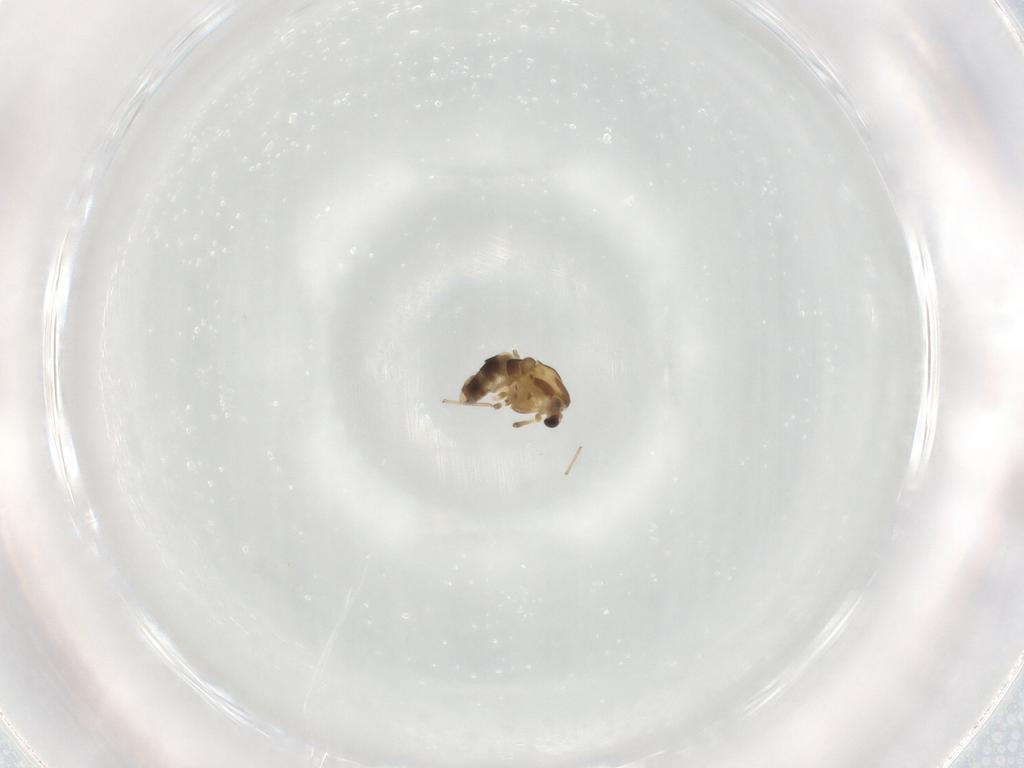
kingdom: Animalia
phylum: Arthropoda
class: Insecta
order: Diptera
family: Chironomidae
